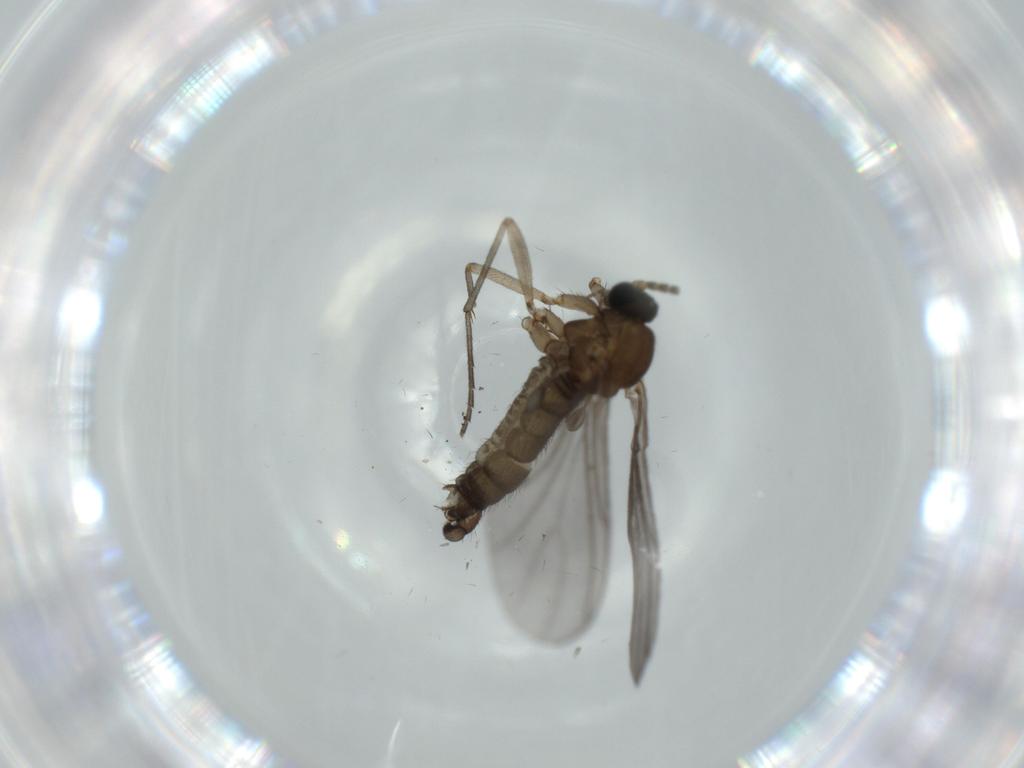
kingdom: Animalia
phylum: Arthropoda
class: Insecta
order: Diptera
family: Sciaridae
